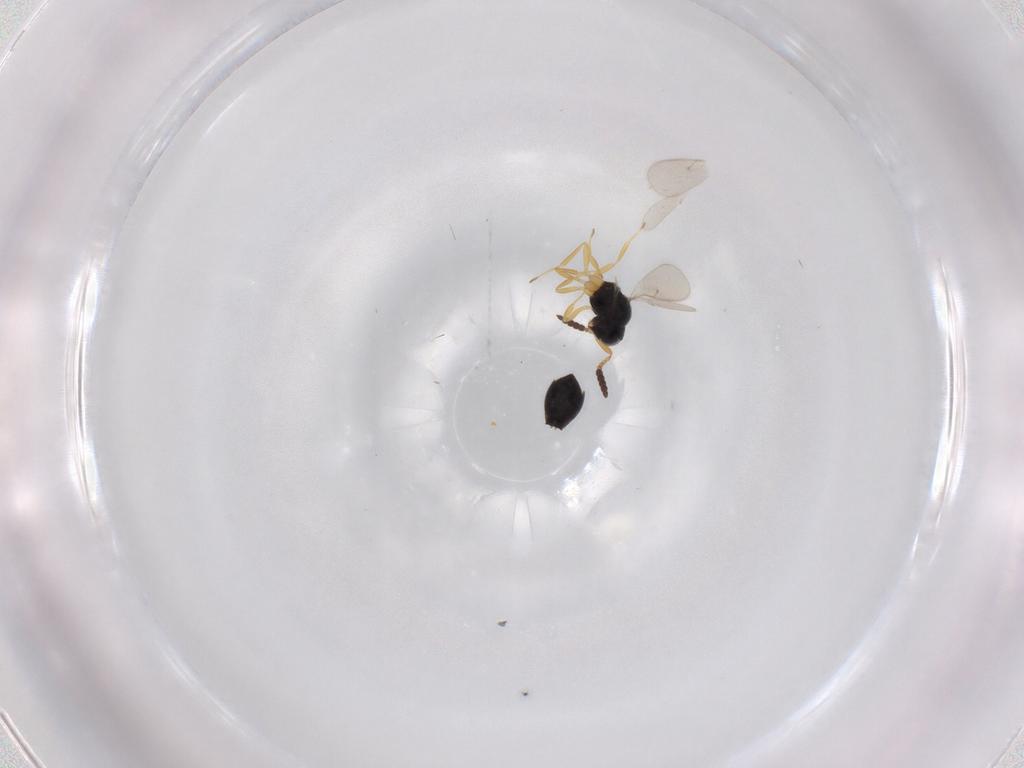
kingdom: Animalia
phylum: Arthropoda
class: Insecta
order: Hymenoptera
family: Scelionidae
